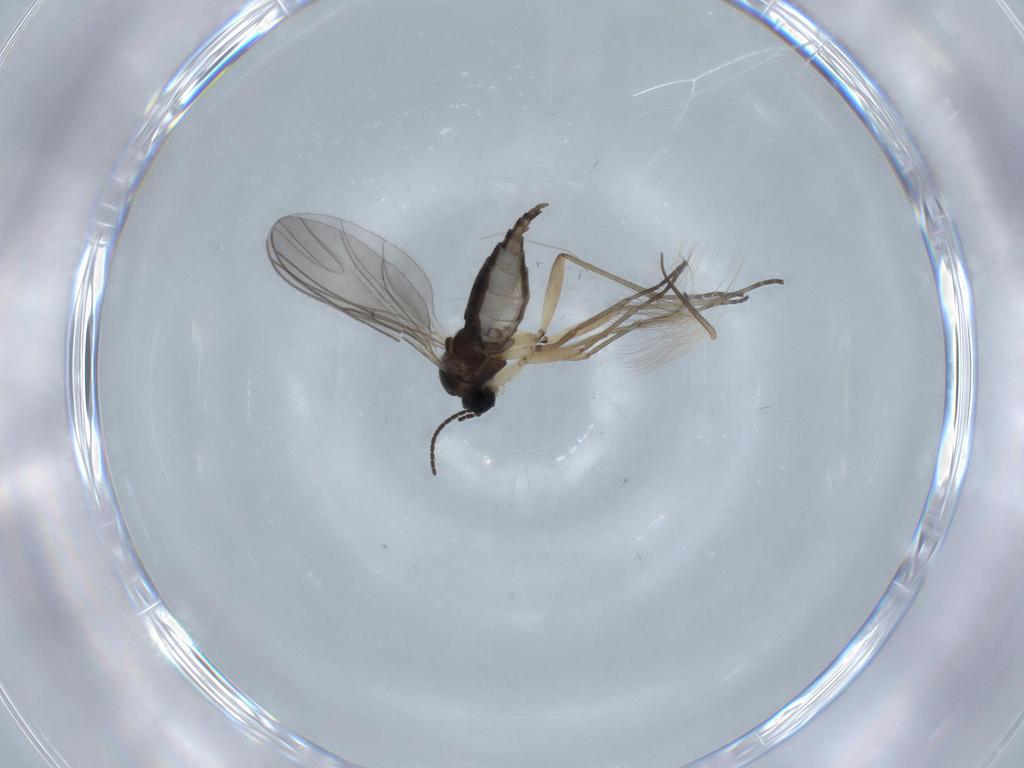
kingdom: Animalia
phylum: Arthropoda
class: Insecta
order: Diptera
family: Sciaridae
